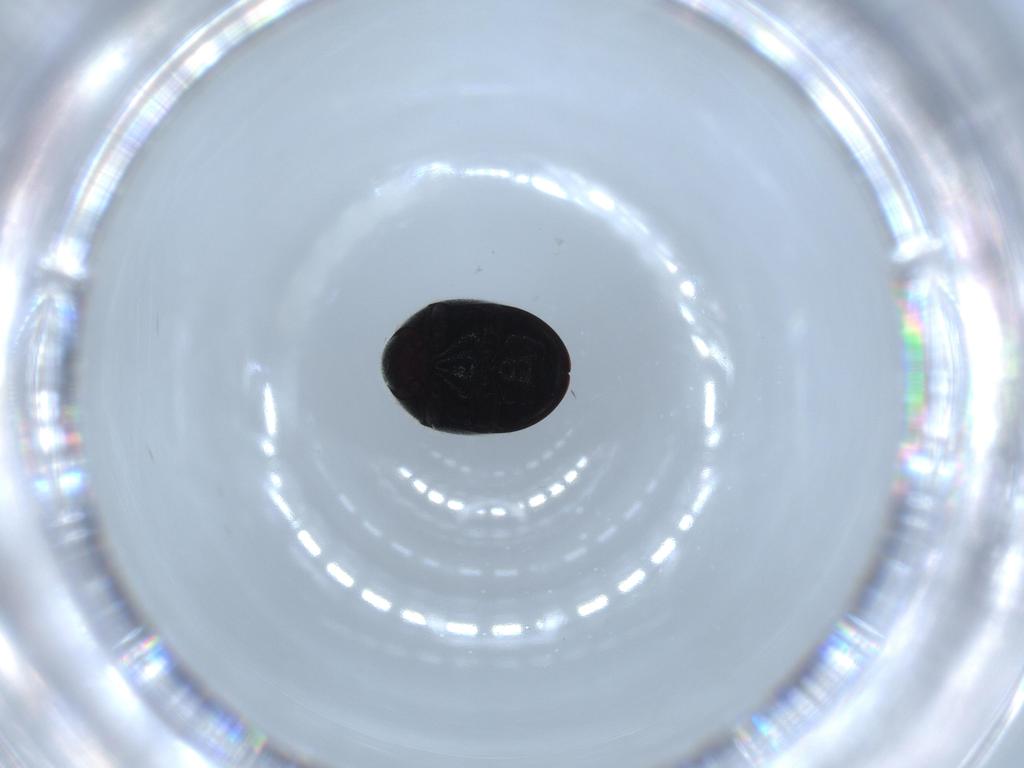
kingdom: Animalia
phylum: Arthropoda
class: Insecta
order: Coleoptera
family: Ptinidae
